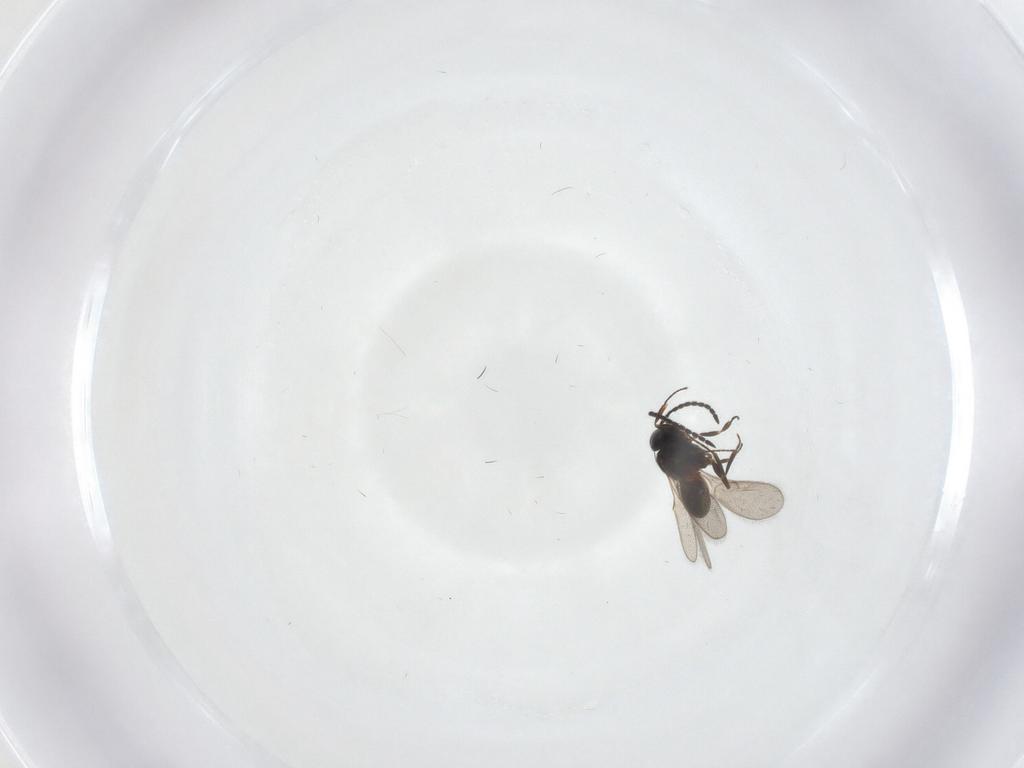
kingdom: Animalia
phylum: Arthropoda
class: Insecta
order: Hymenoptera
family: Scelionidae
